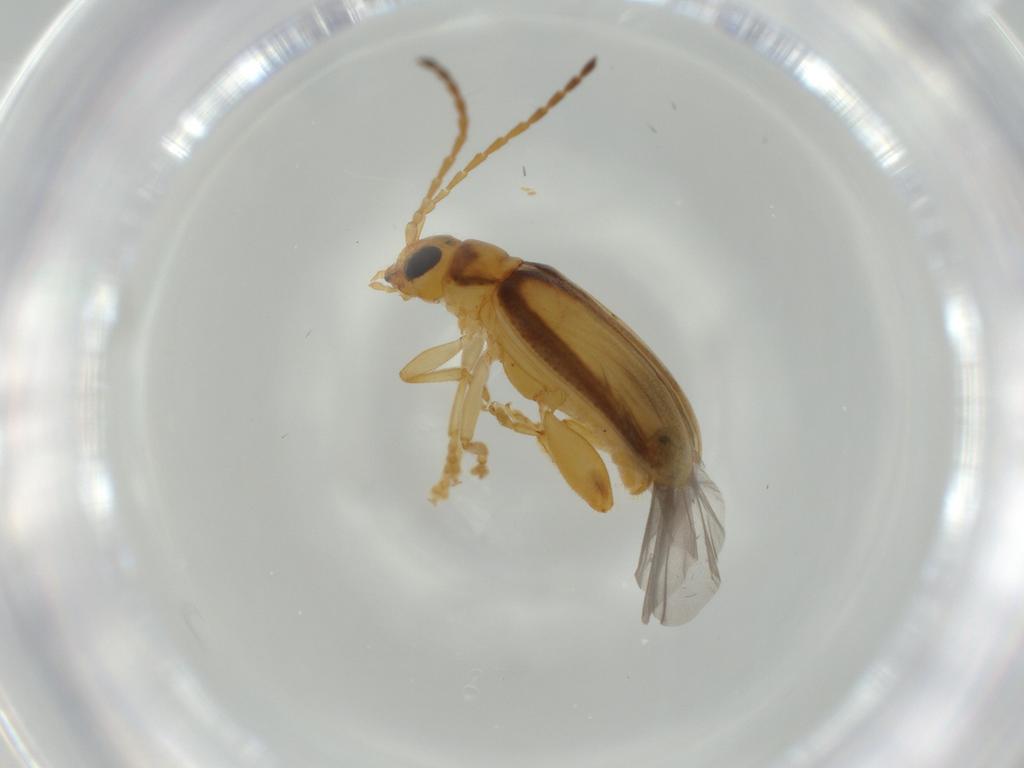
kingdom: Animalia
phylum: Arthropoda
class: Insecta
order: Coleoptera
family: Chrysomelidae
